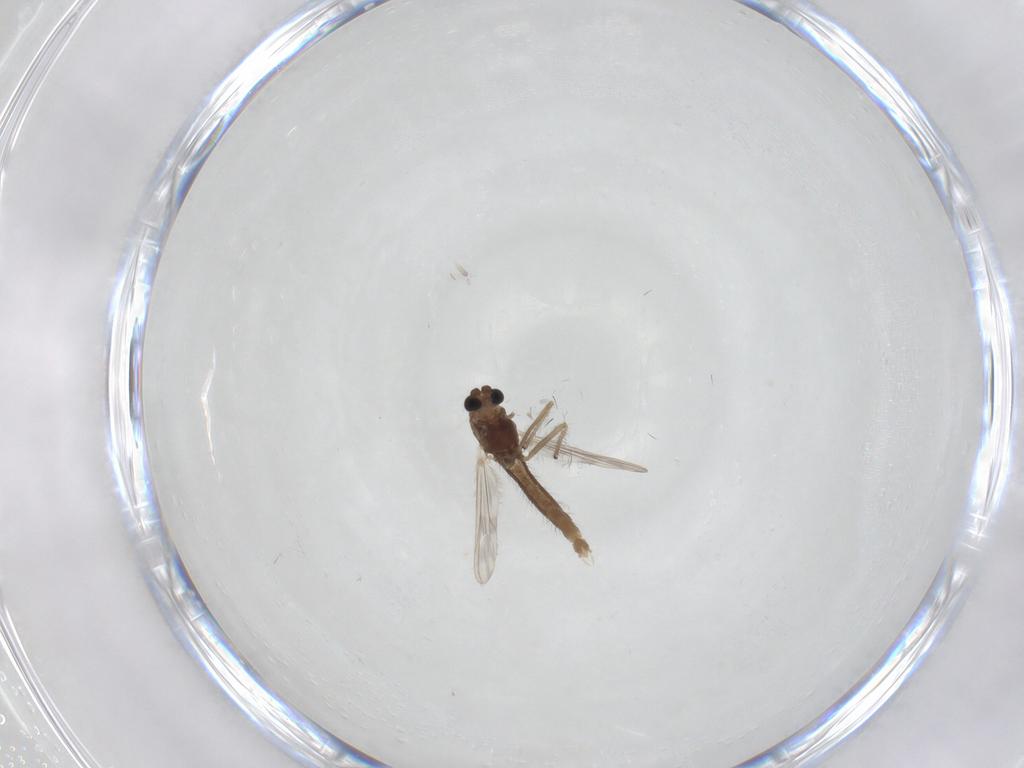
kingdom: Animalia
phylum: Arthropoda
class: Insecta
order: Diptera
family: Chironomidae
